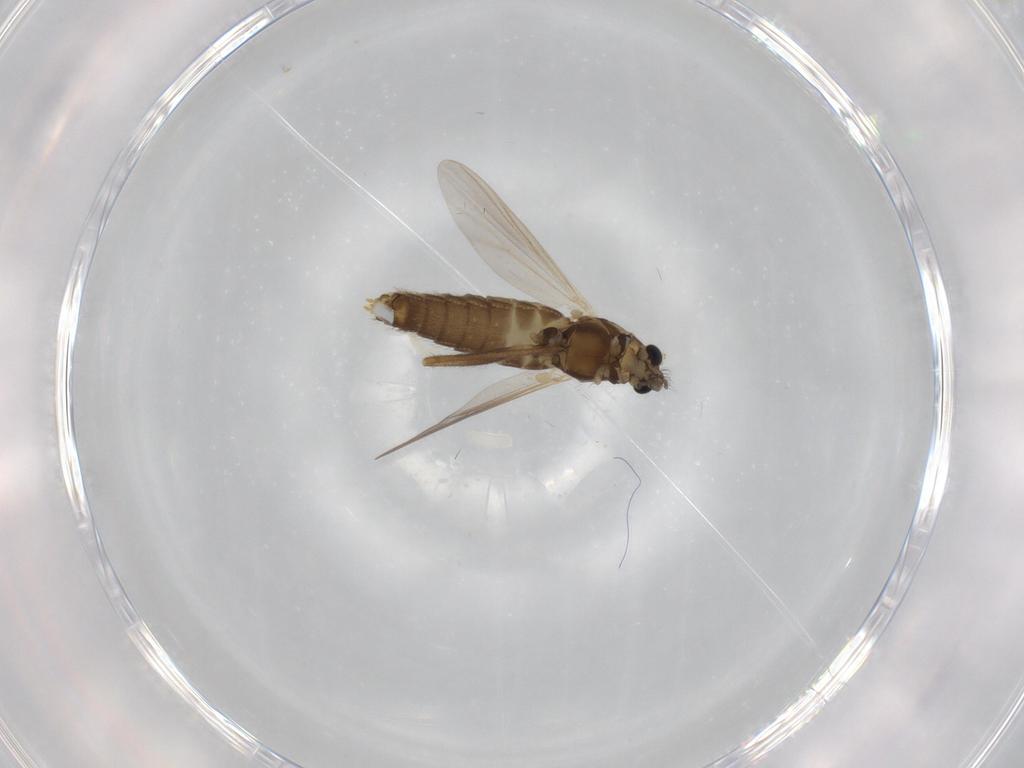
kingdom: Animalia
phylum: Arthropoda
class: Insecta
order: Diptera
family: Chironomidae
